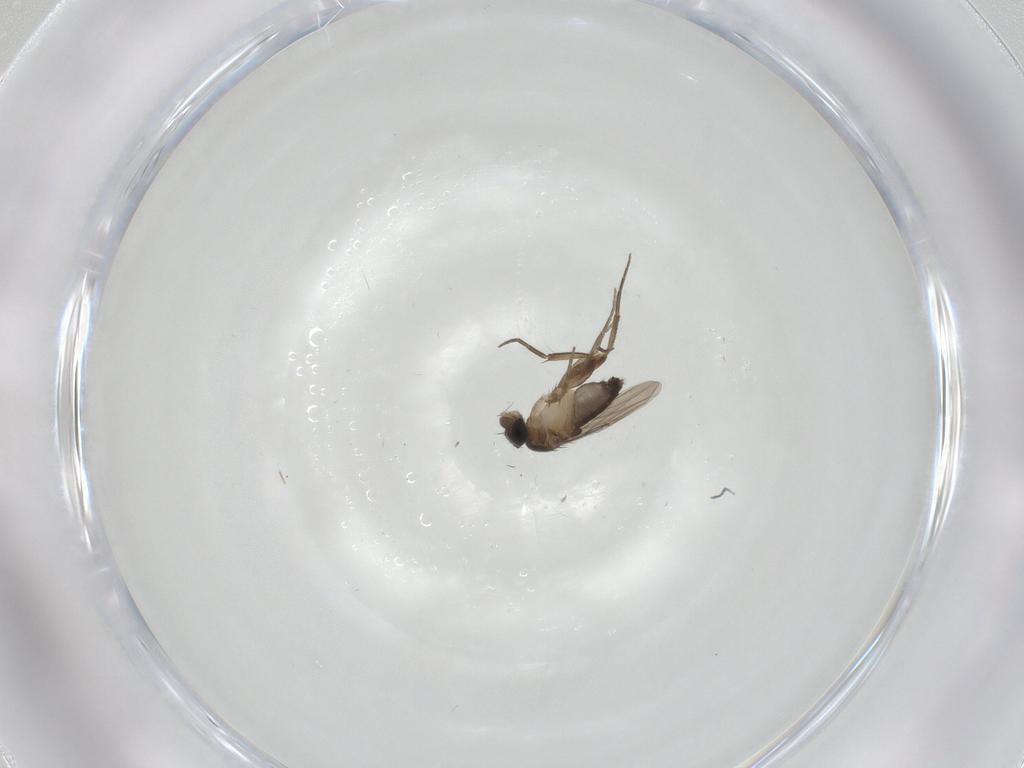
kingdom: Animalia
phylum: Arthropoda
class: Insecta
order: Diptera
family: Phoridae
